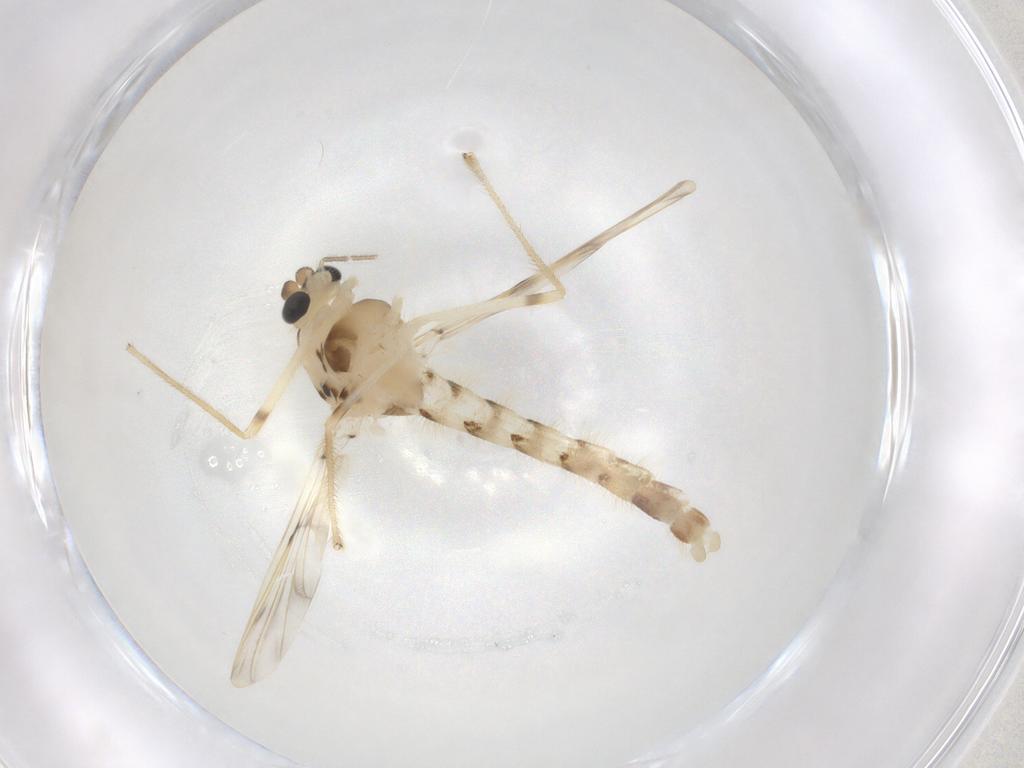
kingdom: Animalia
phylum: Arthropoda
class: Insecta
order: Diptera
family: Chironomidae
